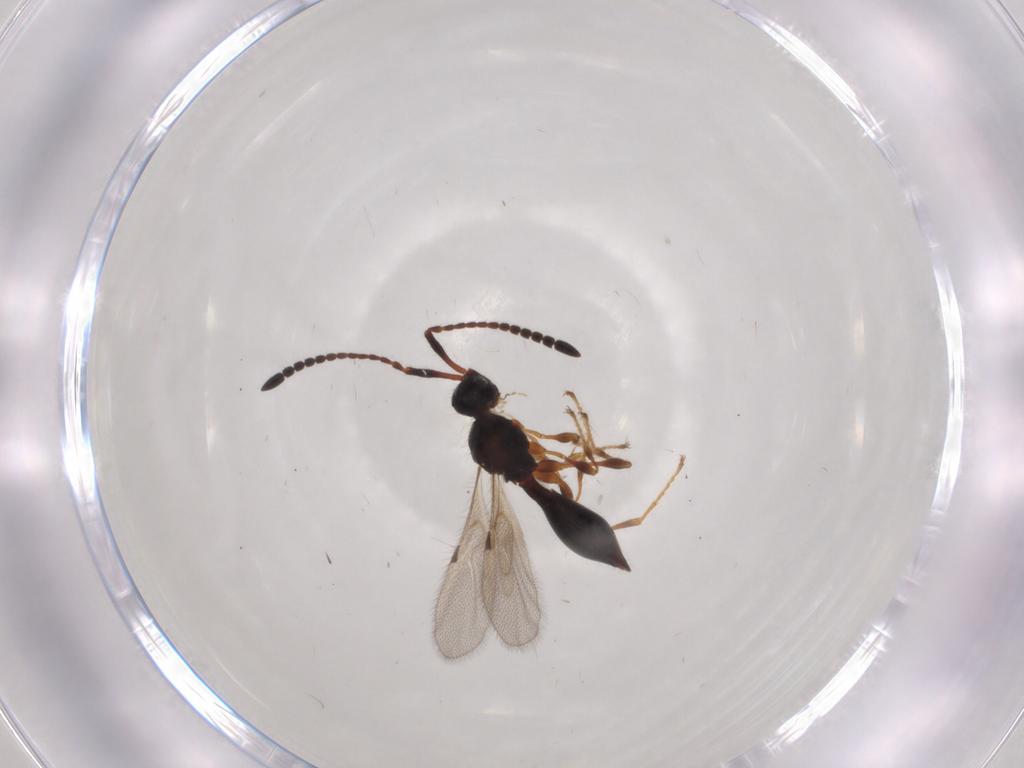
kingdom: Animalia
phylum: Arthropoda
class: Insecta
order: Hymenoptera
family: Diapriidae
